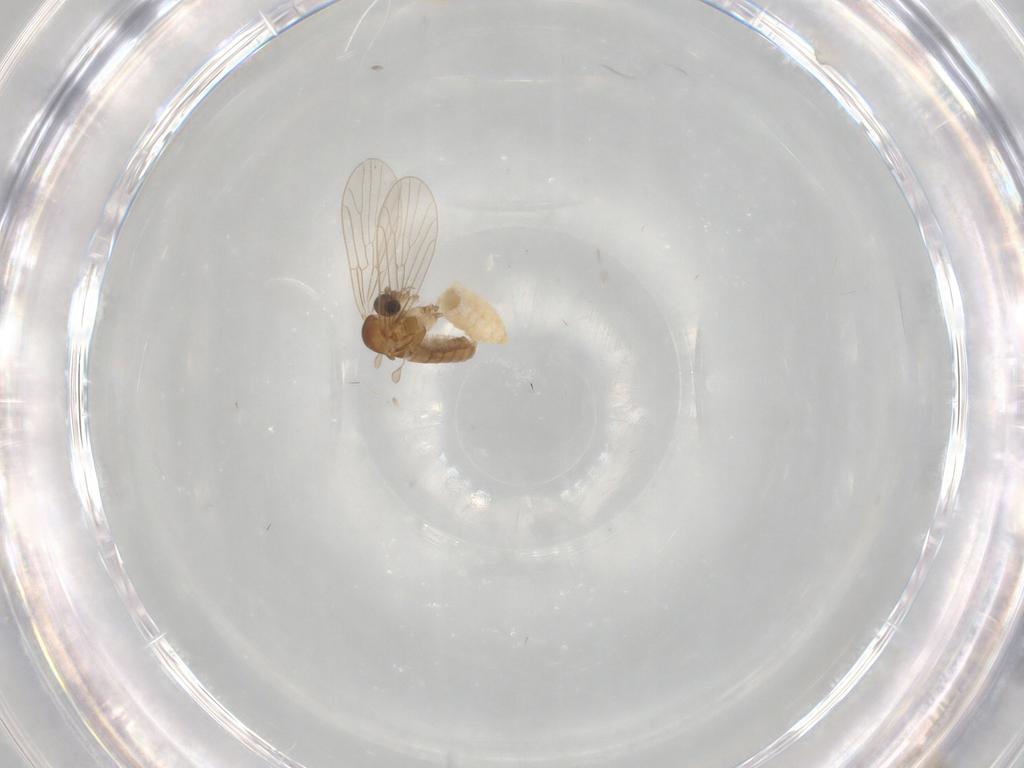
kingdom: Animalia
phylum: Arthropoda
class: Insecta
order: Diptera
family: Psychodidae
